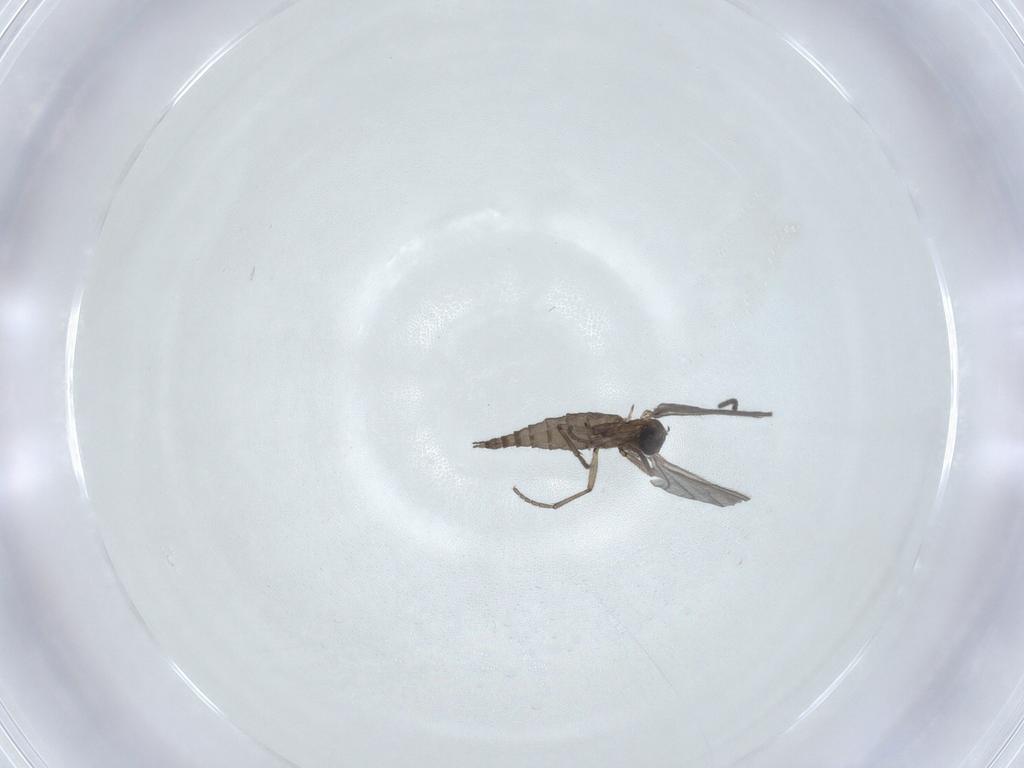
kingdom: Animalia
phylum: Arthropoda
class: Insecta
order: Diptera
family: Sciaridae
